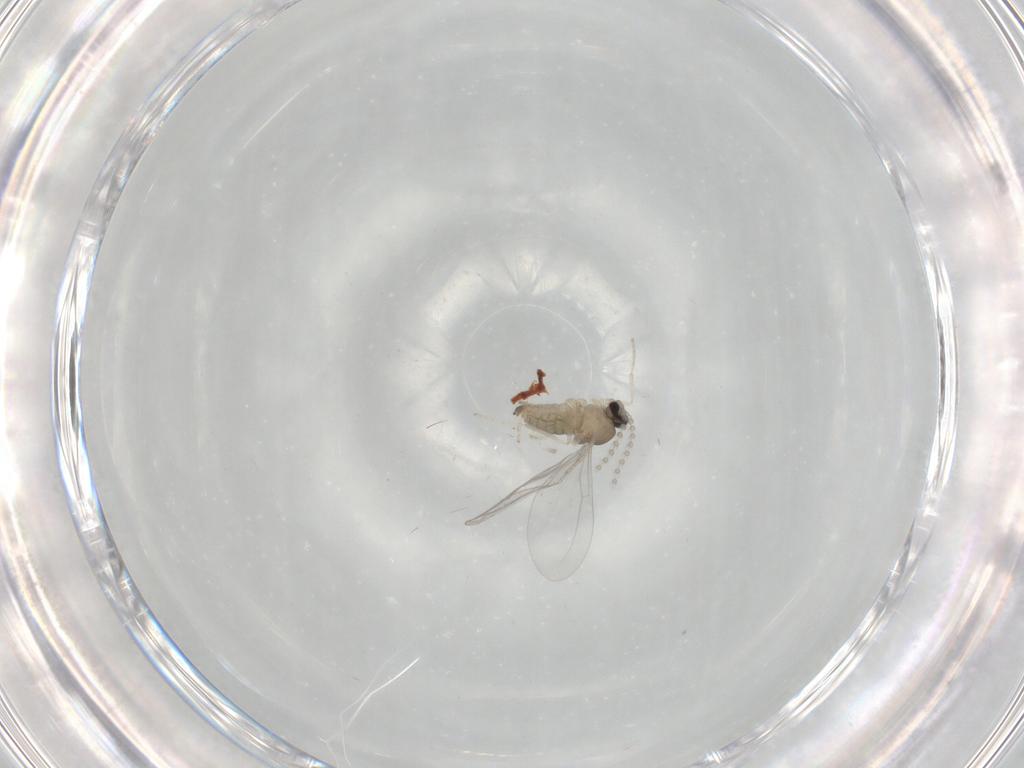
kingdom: Animalia
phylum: Arthropoda
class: Insecta
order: Diptera
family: Cecidomyiidae
